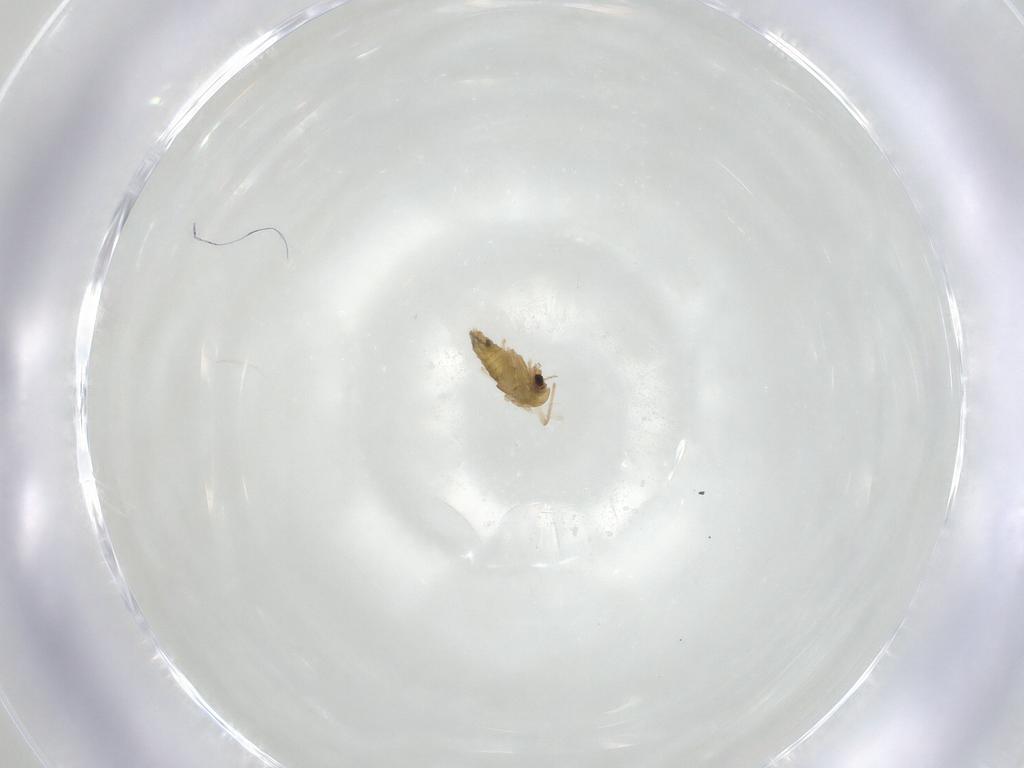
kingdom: Animalia
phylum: Arthropoda
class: Insecta
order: Diptera
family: Chironomidae
